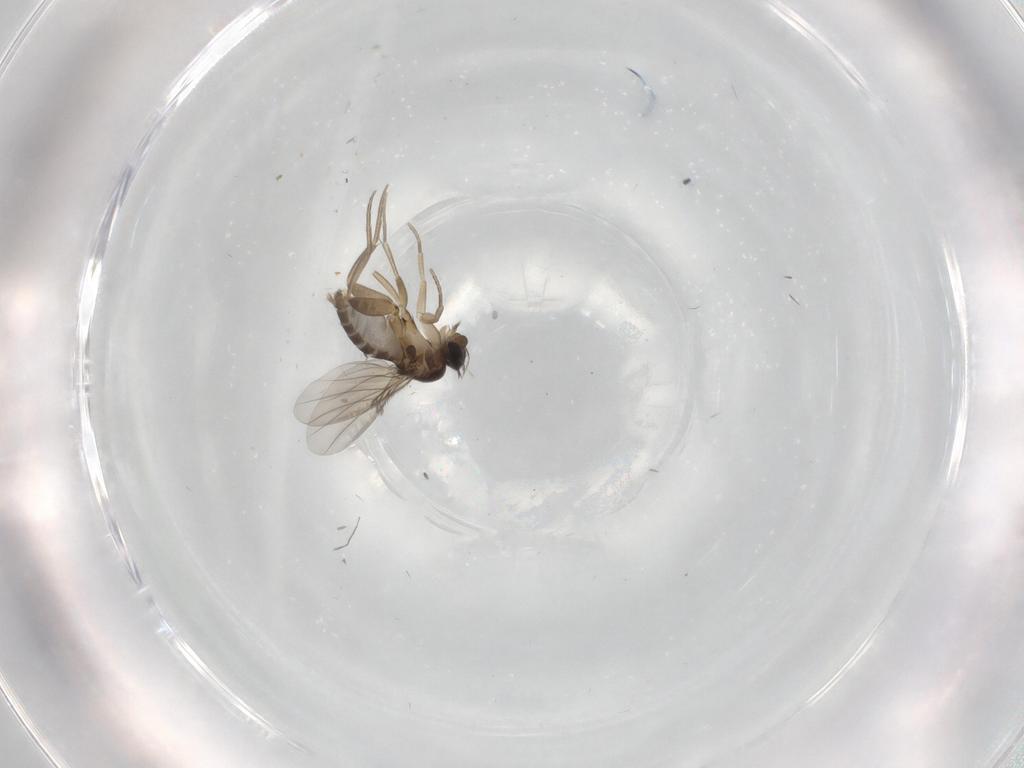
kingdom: Animalia
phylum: Arthropoda
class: Insecta
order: Diptera
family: Phoridae
